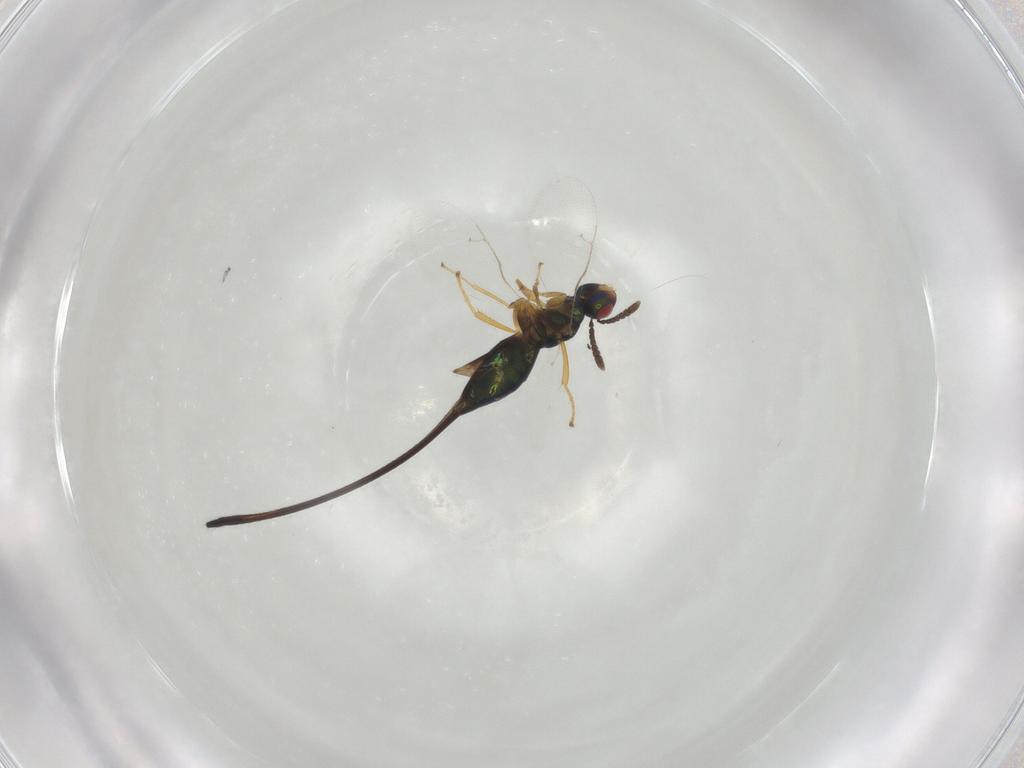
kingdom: Animalia
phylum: Arthropoda
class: Insecta
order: Hymenoptera
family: Pteromalidae
